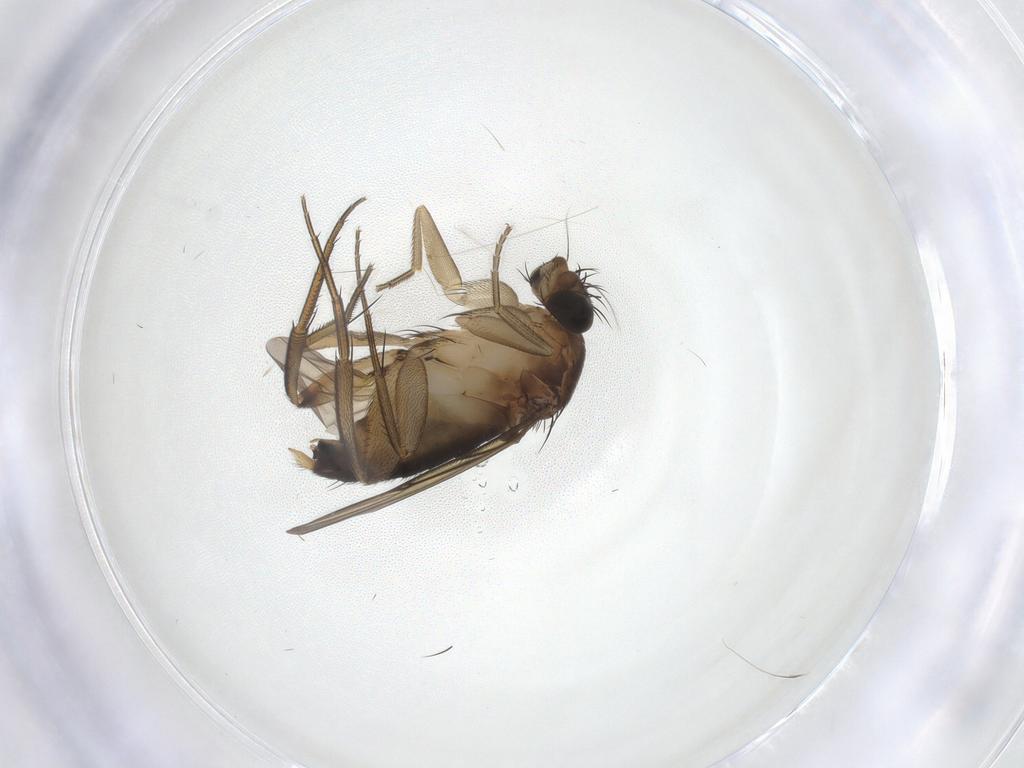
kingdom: Animalia
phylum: Arthropoda
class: Insecta
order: Diptera
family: Phoridae
